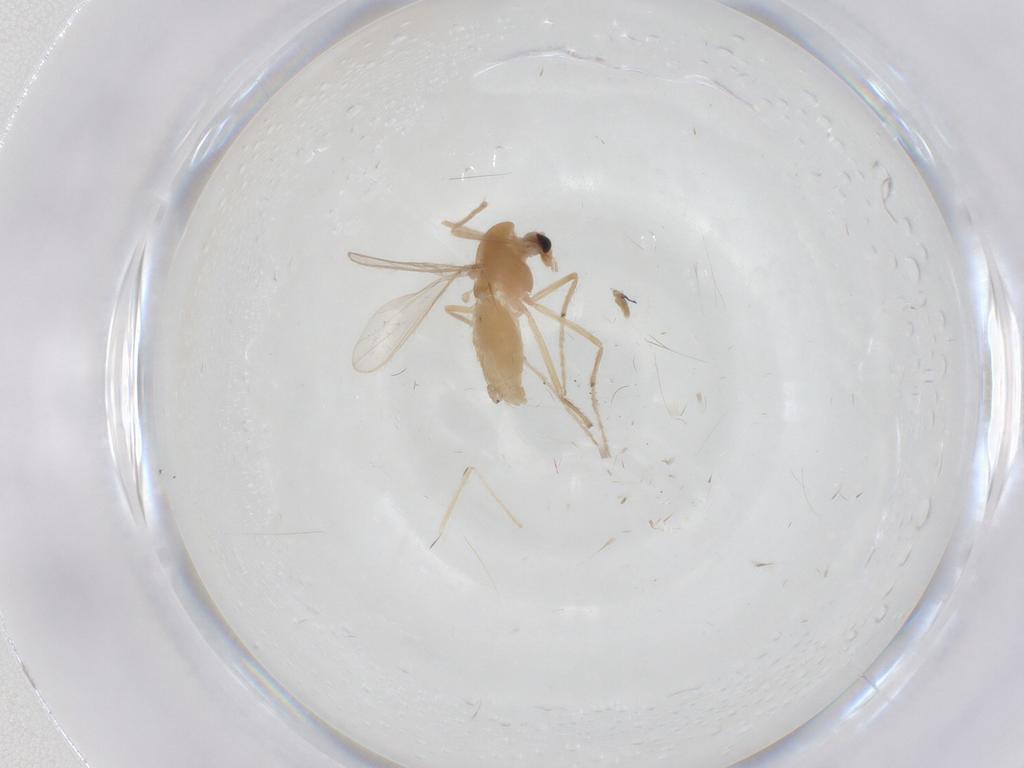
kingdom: Animalia
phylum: Arthropoda
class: Insecta
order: Diptera
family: Chironomidae
